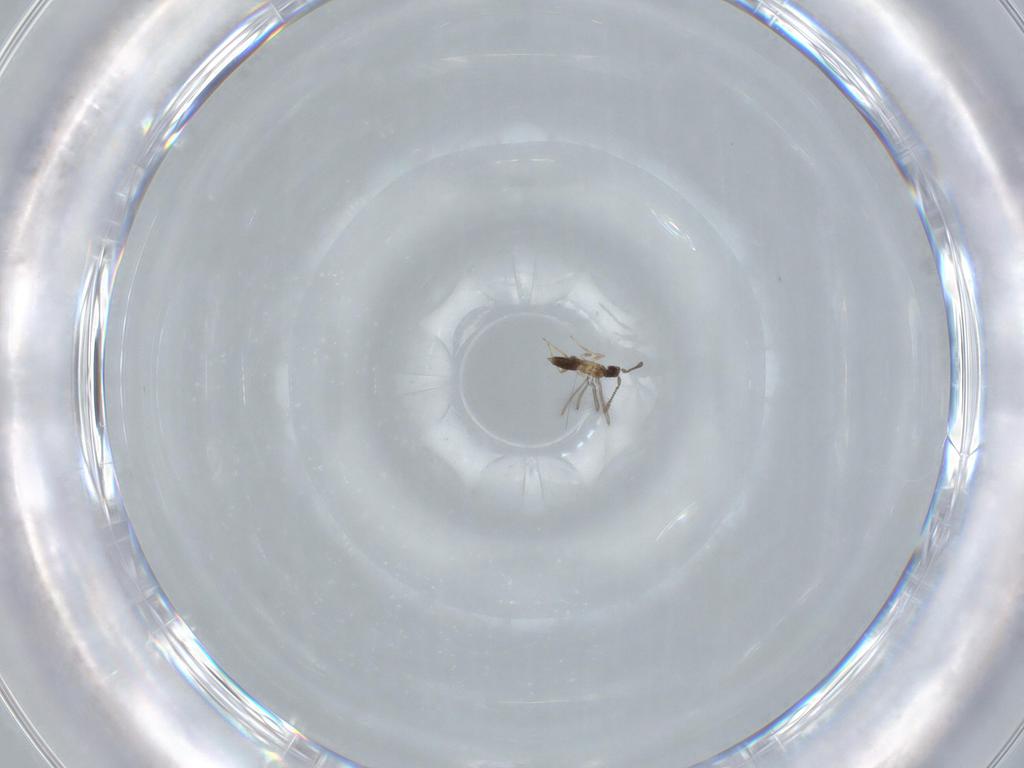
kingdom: Animalia
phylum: Arthropoda
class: Insecta
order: Hymenoptera
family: Mymaridae
